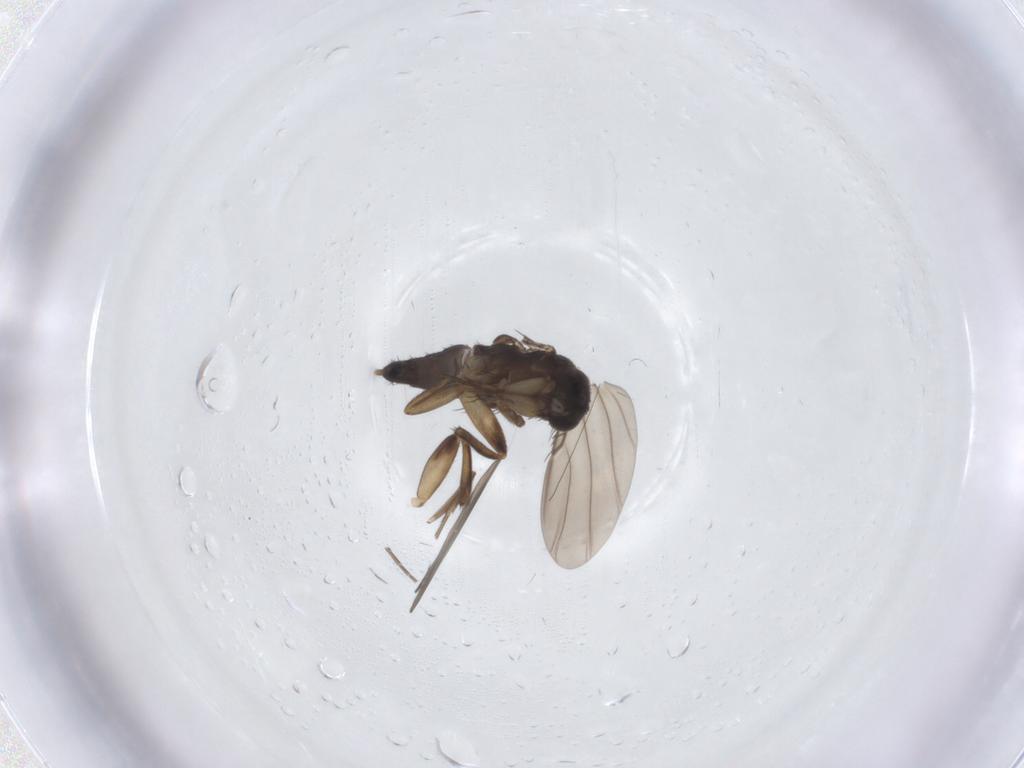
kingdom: Animalia
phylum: Arthropoda
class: Insecta
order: Diptera
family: Phoridae
